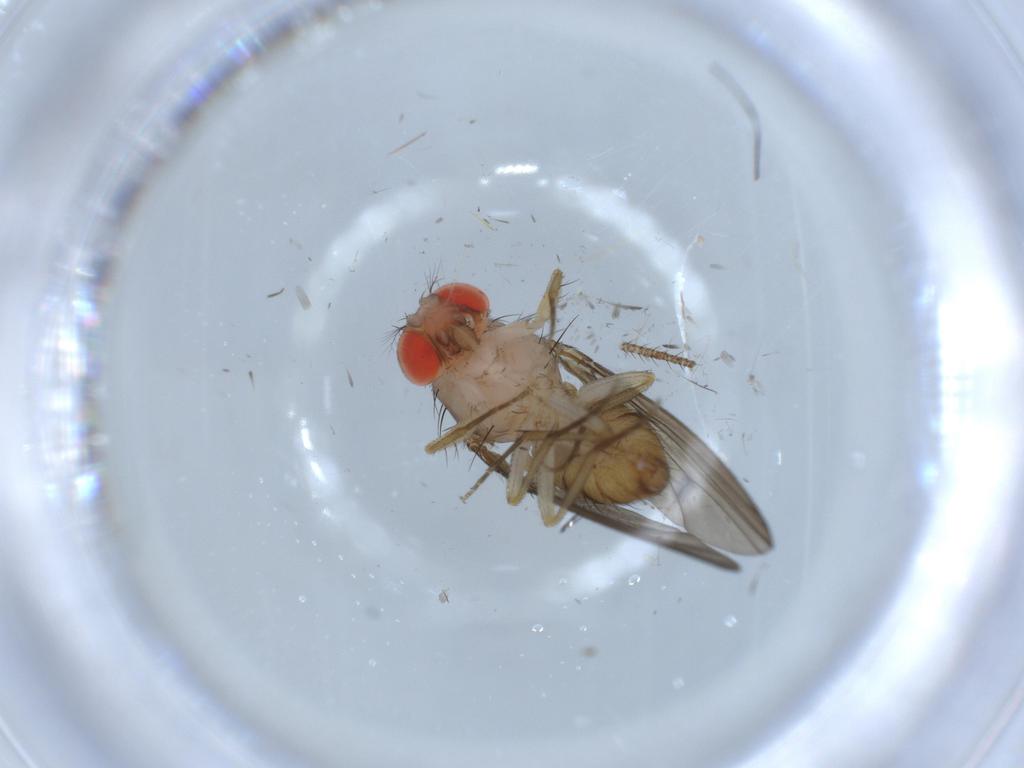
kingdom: Animalia
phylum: Arthropoda
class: Insecta
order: Diptera
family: Drosophilidae
